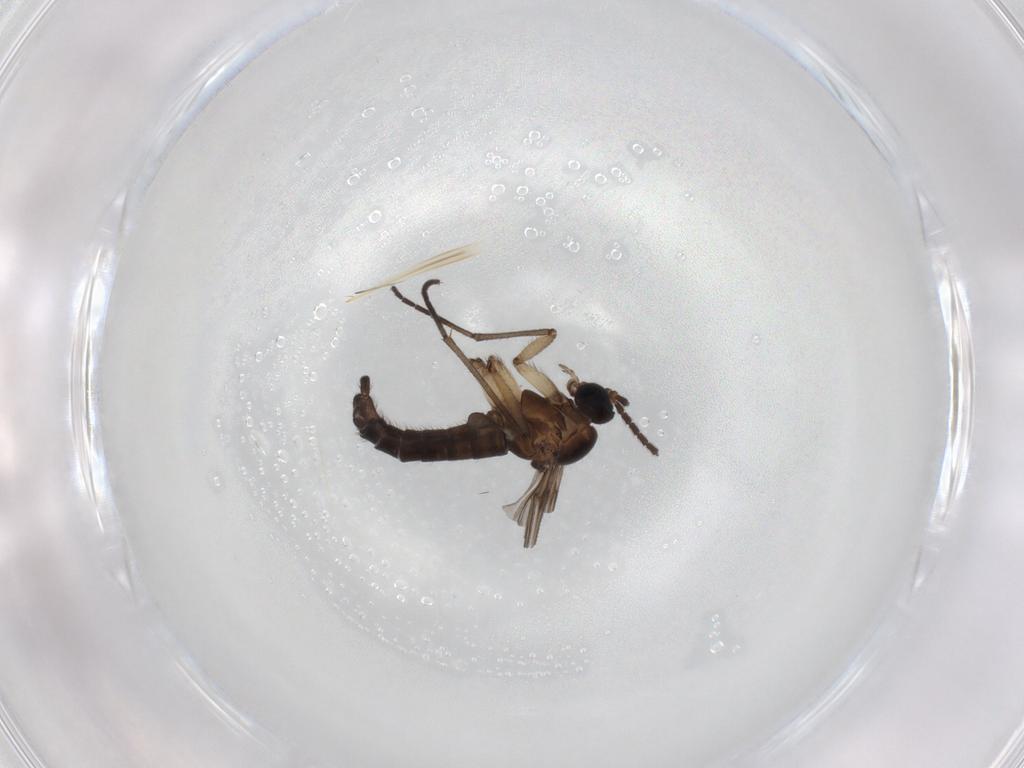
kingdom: Animalia
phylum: Arthropoda
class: Insecta
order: Diptera
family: Sciaridae
